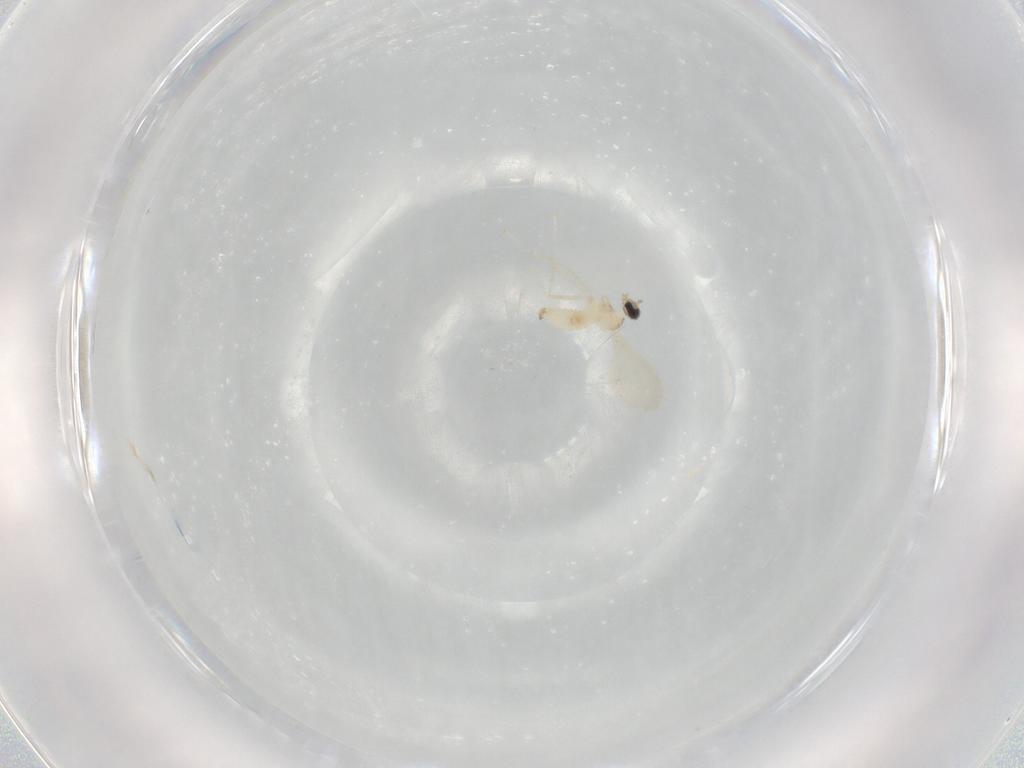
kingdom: Animalia
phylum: Arthropoda
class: Insecta
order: Diptera
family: Cecidomyiidae
